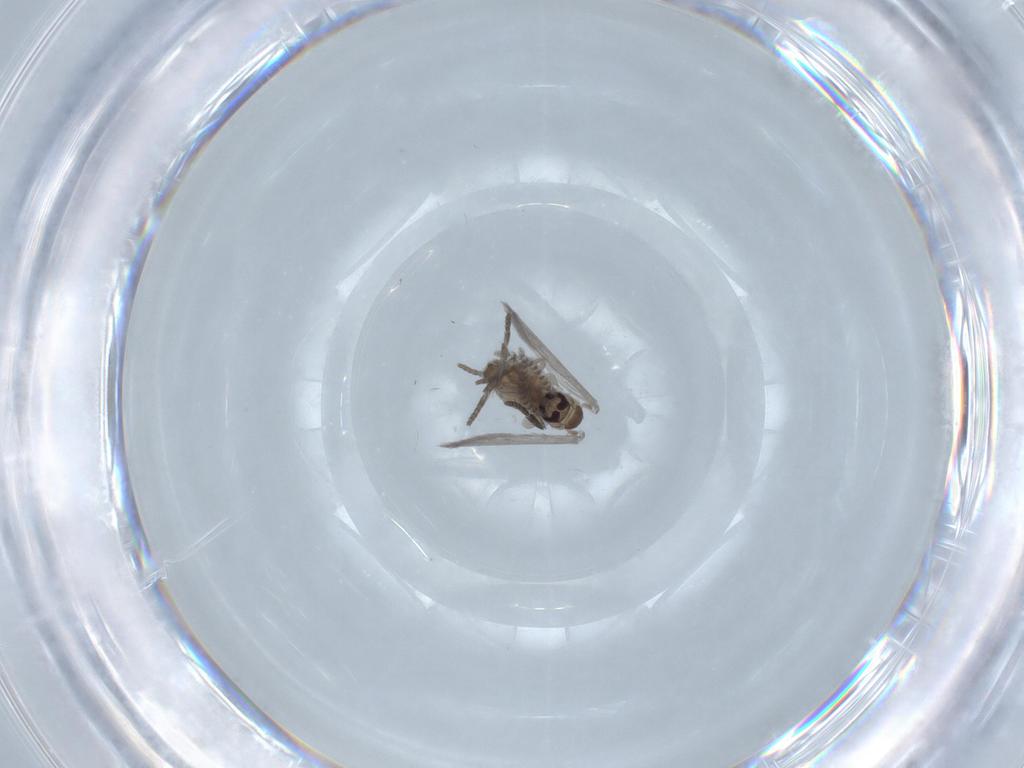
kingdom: Animalia
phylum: Arthropoda
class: Insecta
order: Diptera
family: Psychodidae
